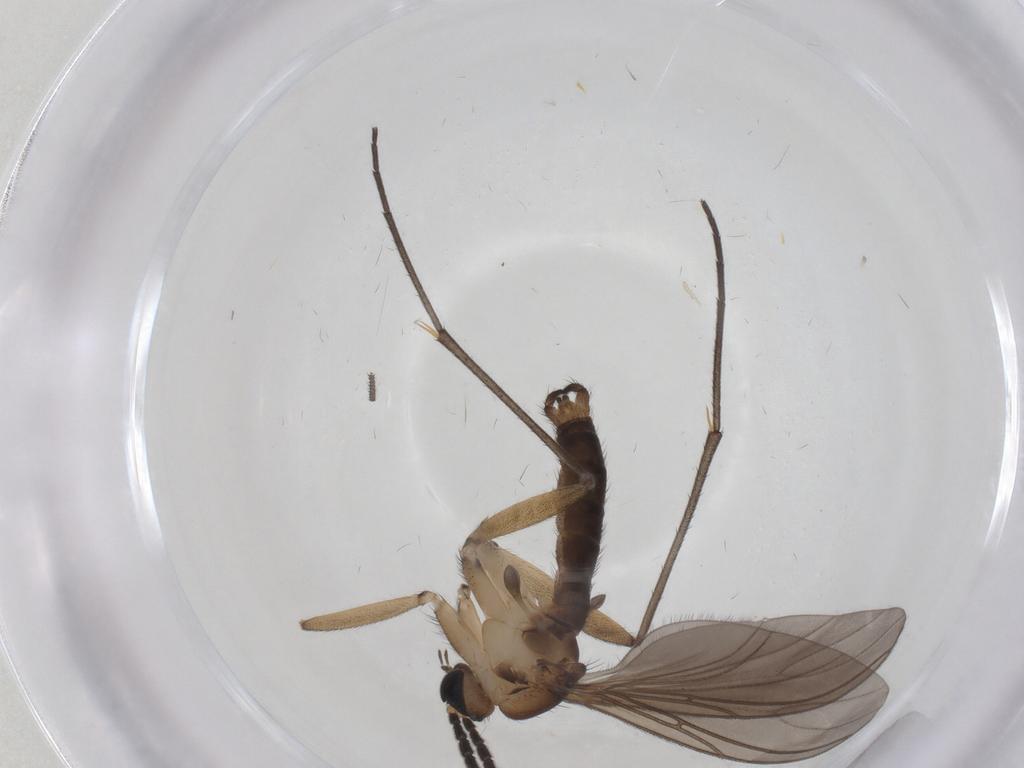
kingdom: Animalia
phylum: Arthropoda
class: Insecta
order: Diptera
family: Sciaridae
